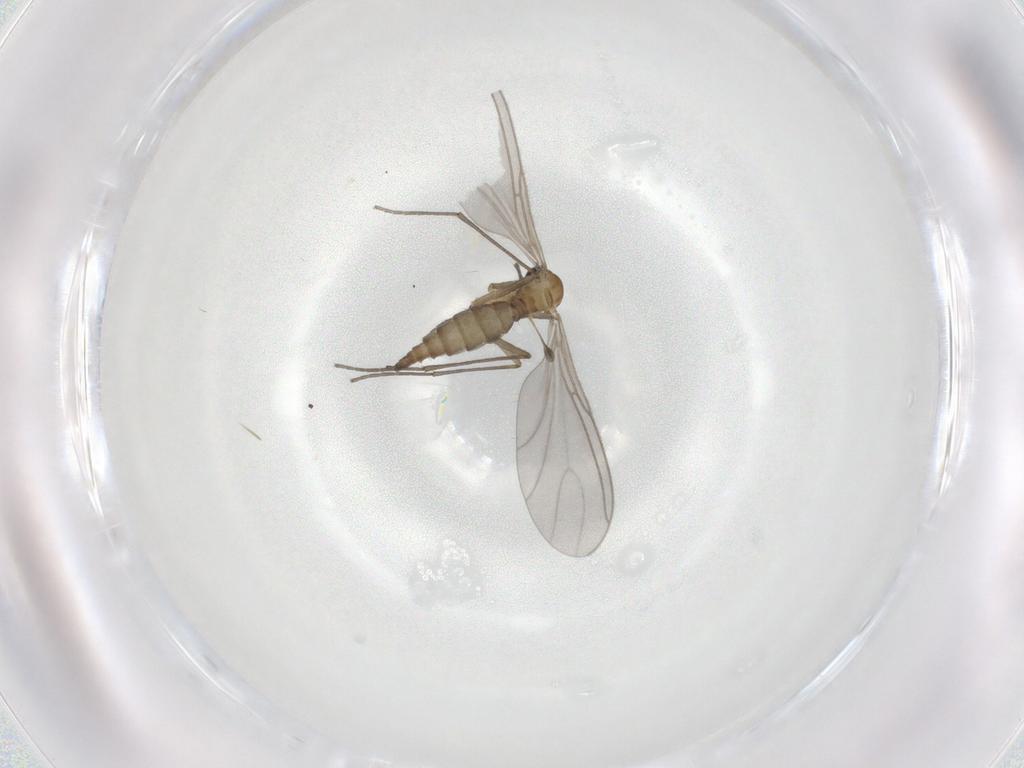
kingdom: Animalia
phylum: Arthropoda
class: Insecta
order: Diptera
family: Sciaridae
